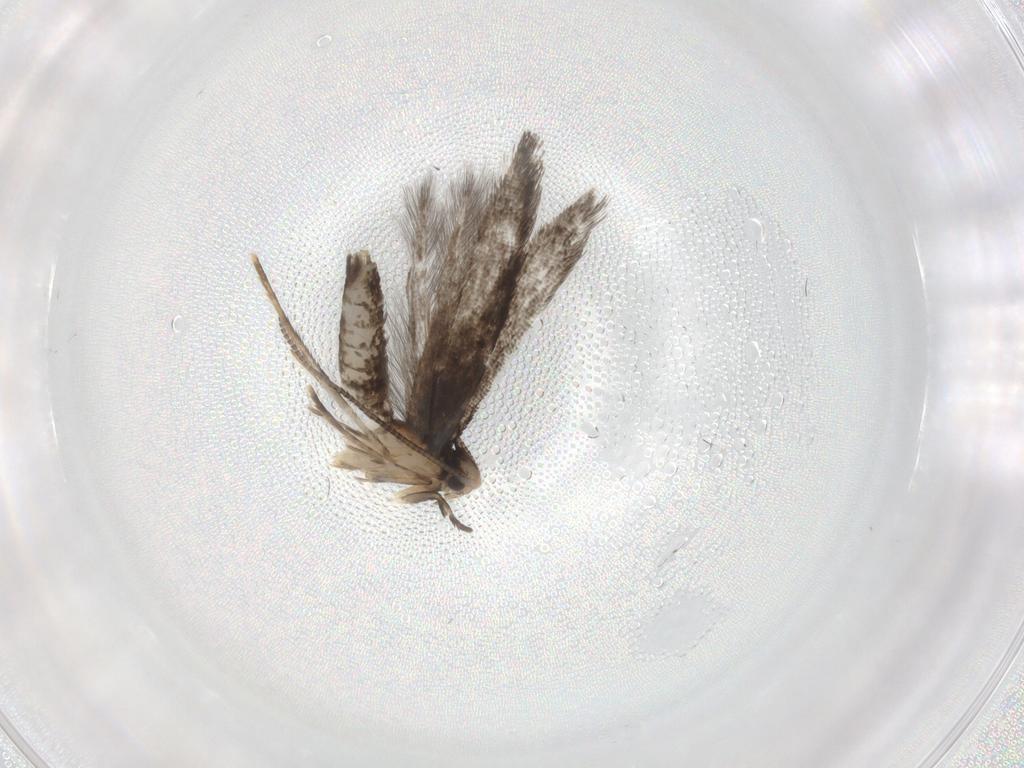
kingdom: Animalia
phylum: Arthropoda
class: Insecta
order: Lepidoptera
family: Tineidae
